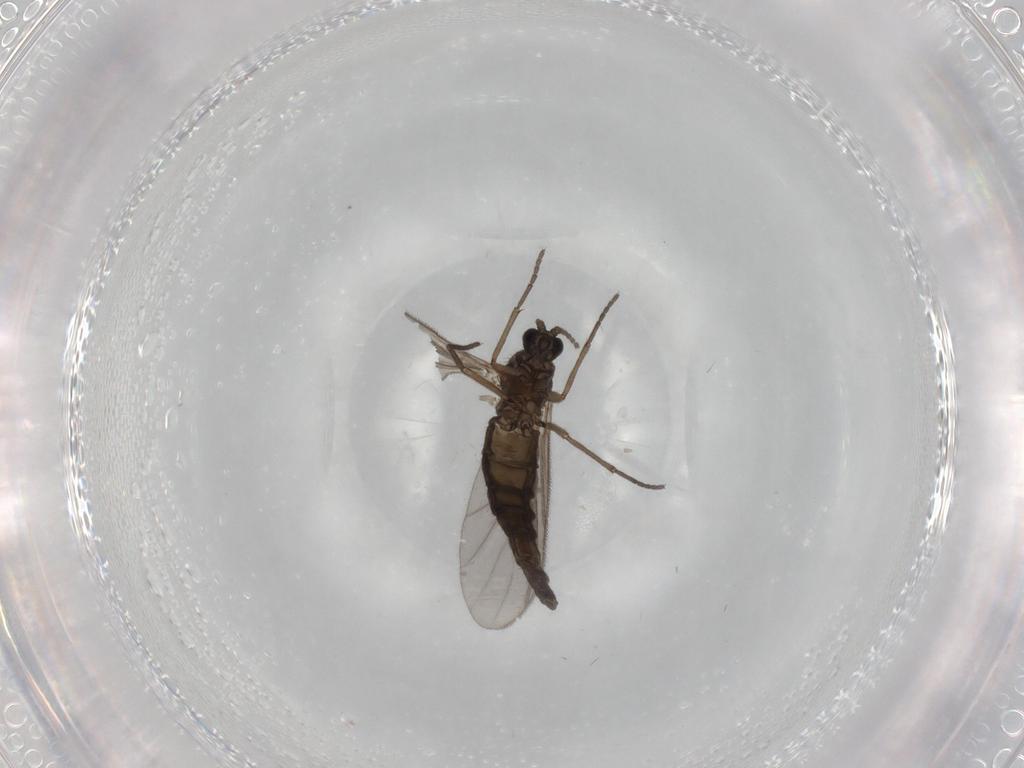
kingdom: Animalia
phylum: Arthropoda
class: Insecta
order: Diptera
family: Sciaridae
